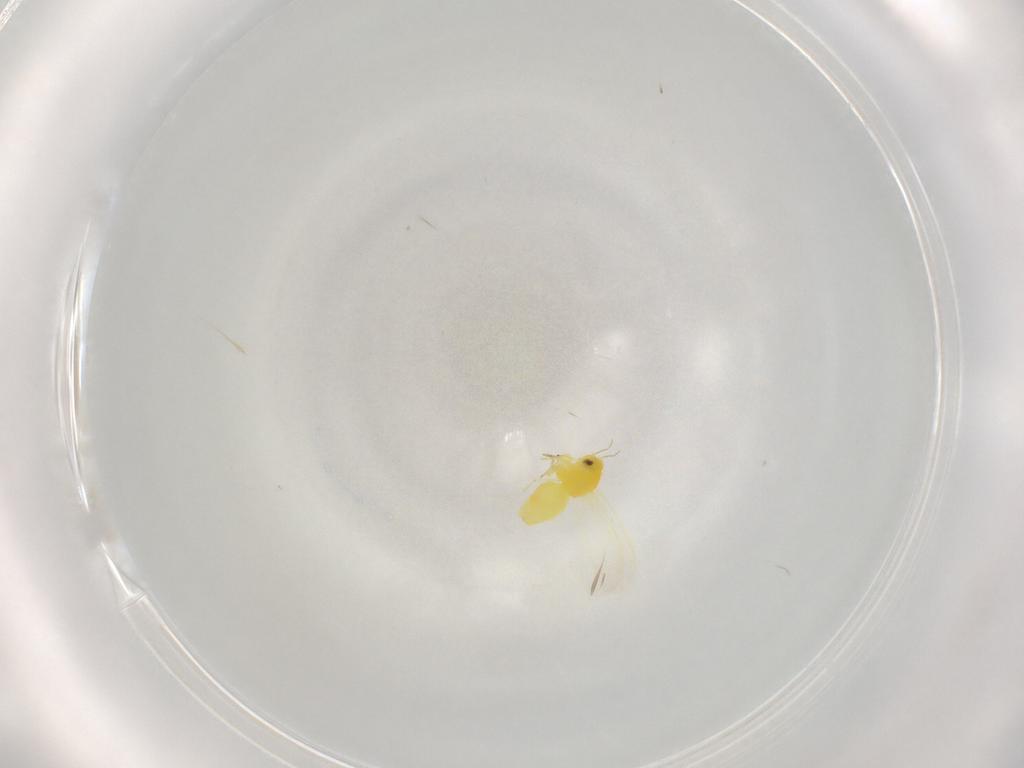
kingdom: Animalia
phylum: Arthropoda
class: Insecta
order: Hemiptera
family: Aleyrodidae
